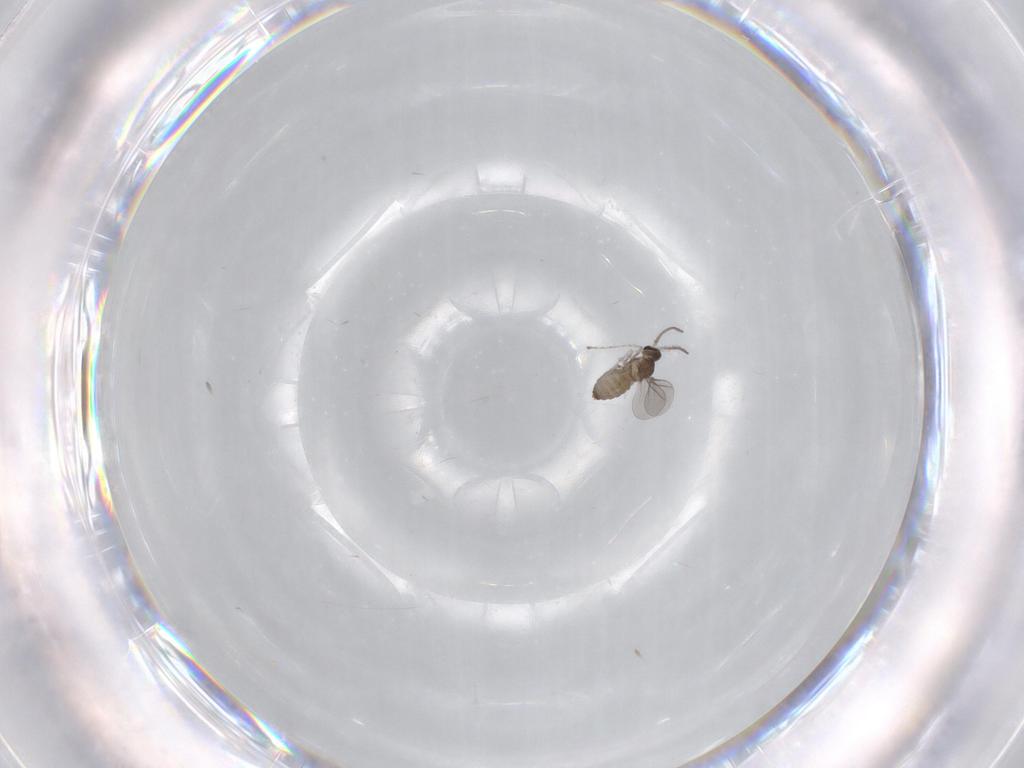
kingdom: Animalia
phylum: Arthropoda
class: Insecta
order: Diptera
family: Cecidomyiidae
